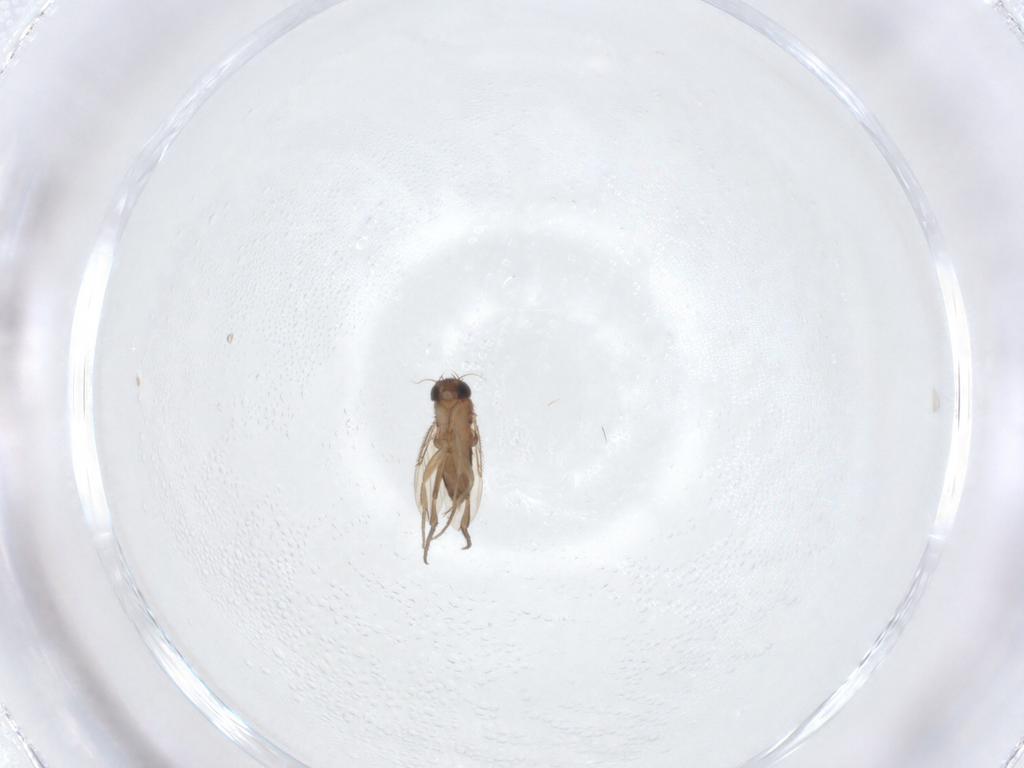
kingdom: Animalia
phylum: Arthropoda
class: Insecta
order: Diptera
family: Phoridae
